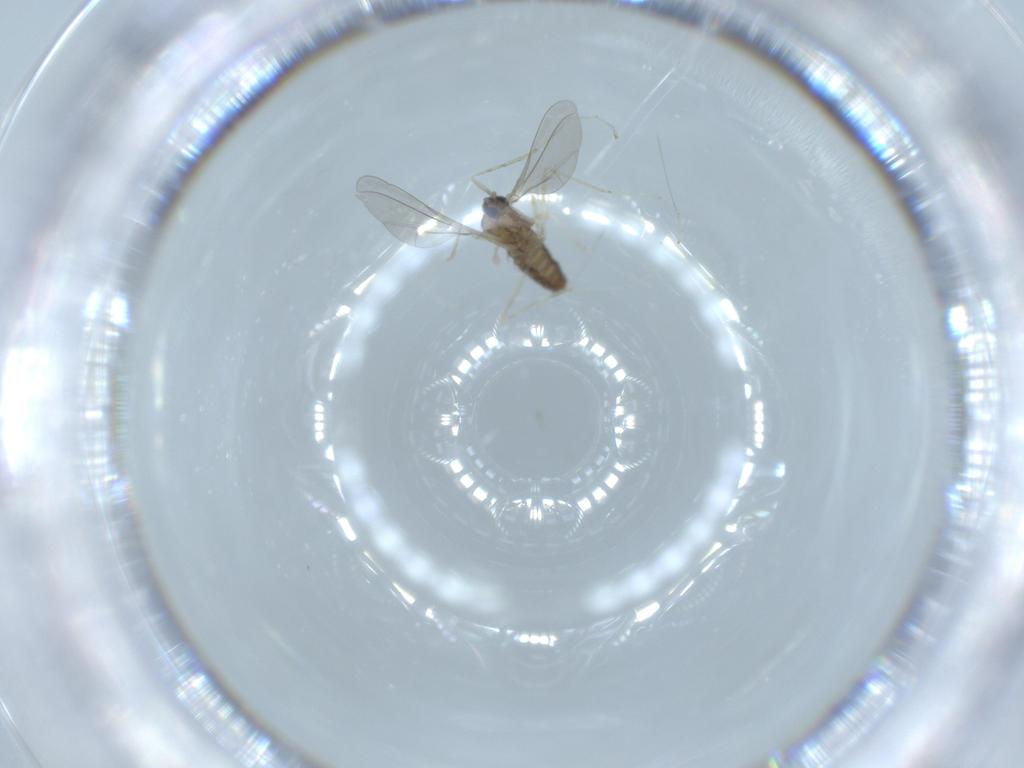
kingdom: Animalia
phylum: Arthropoda
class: Insecta
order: Diptera
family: Cecidomyiidae
